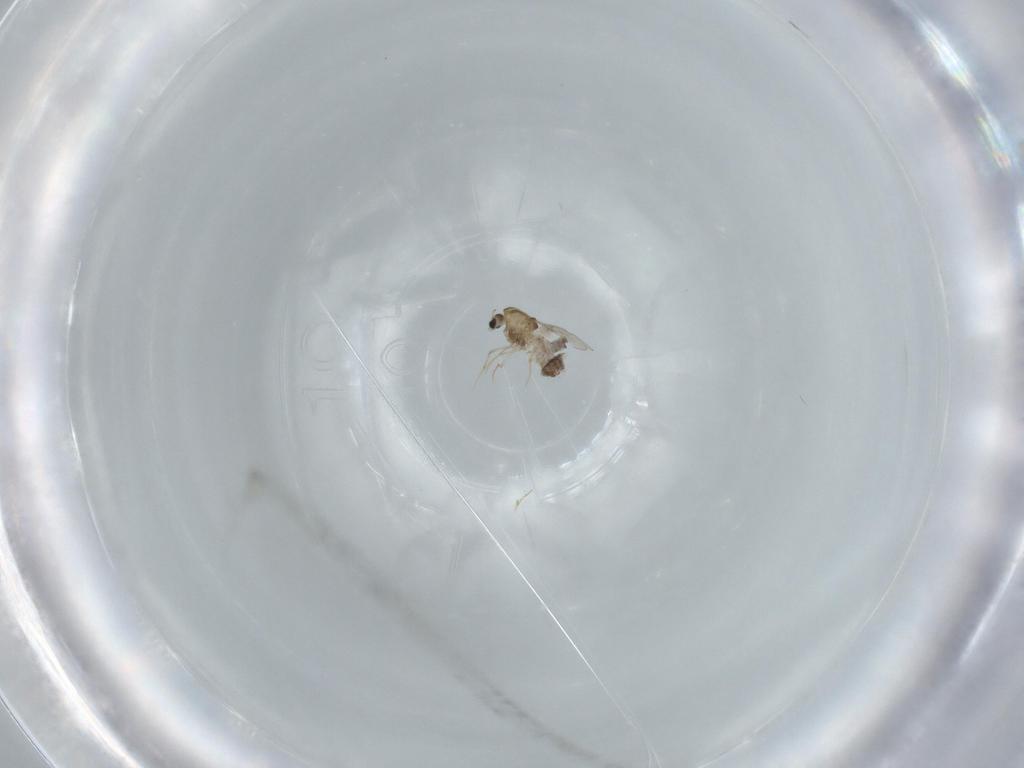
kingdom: Animalia
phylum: Arthropoda
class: Insecta
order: Diptera
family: Chironomidae
